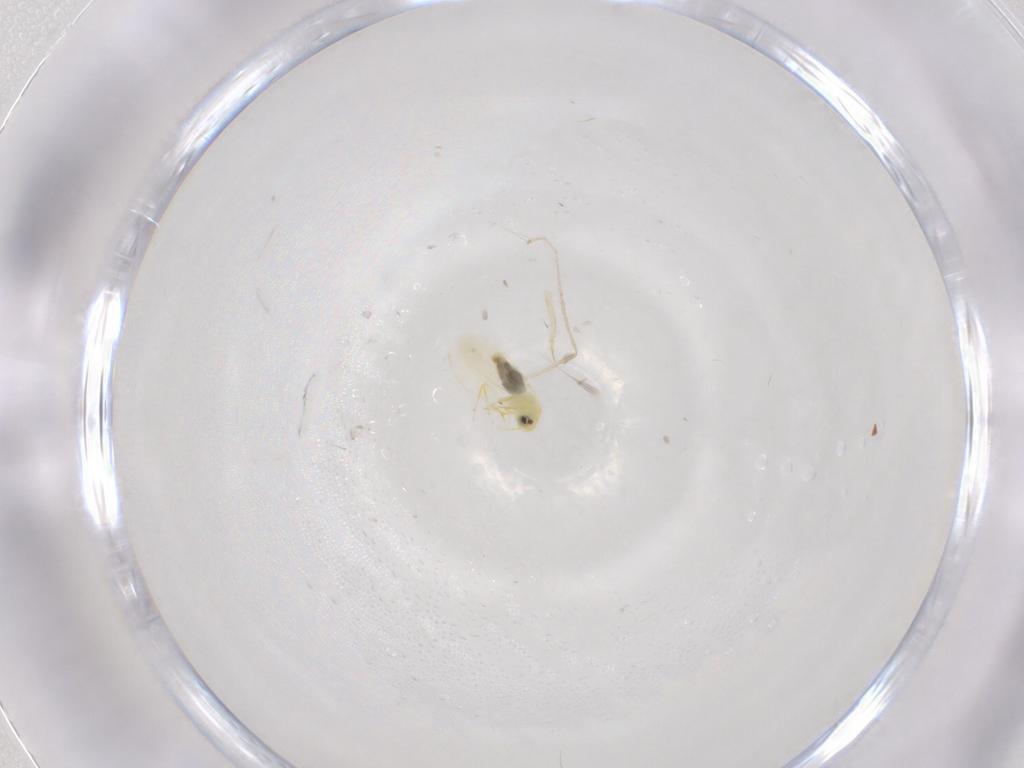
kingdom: Animalia
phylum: Arthropoda
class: Insecta
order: Hemiptera
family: Aleyrodidae
